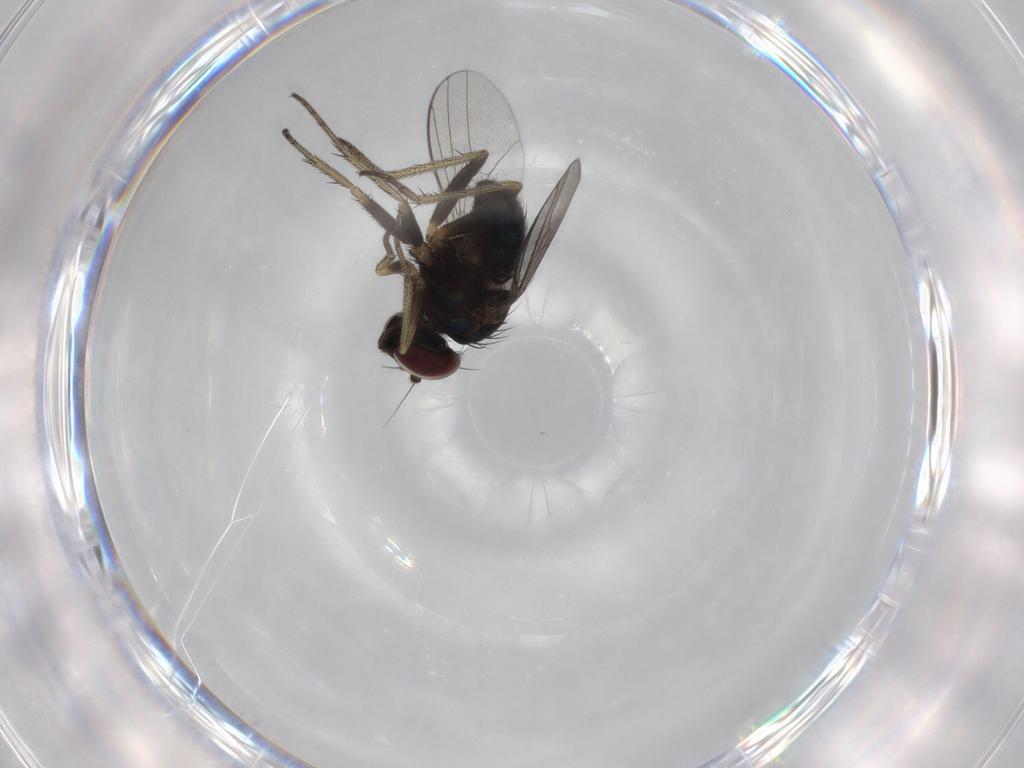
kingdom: Animalia
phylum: Arthropoda
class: Insecta
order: Diptera
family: Dolichopodidae
